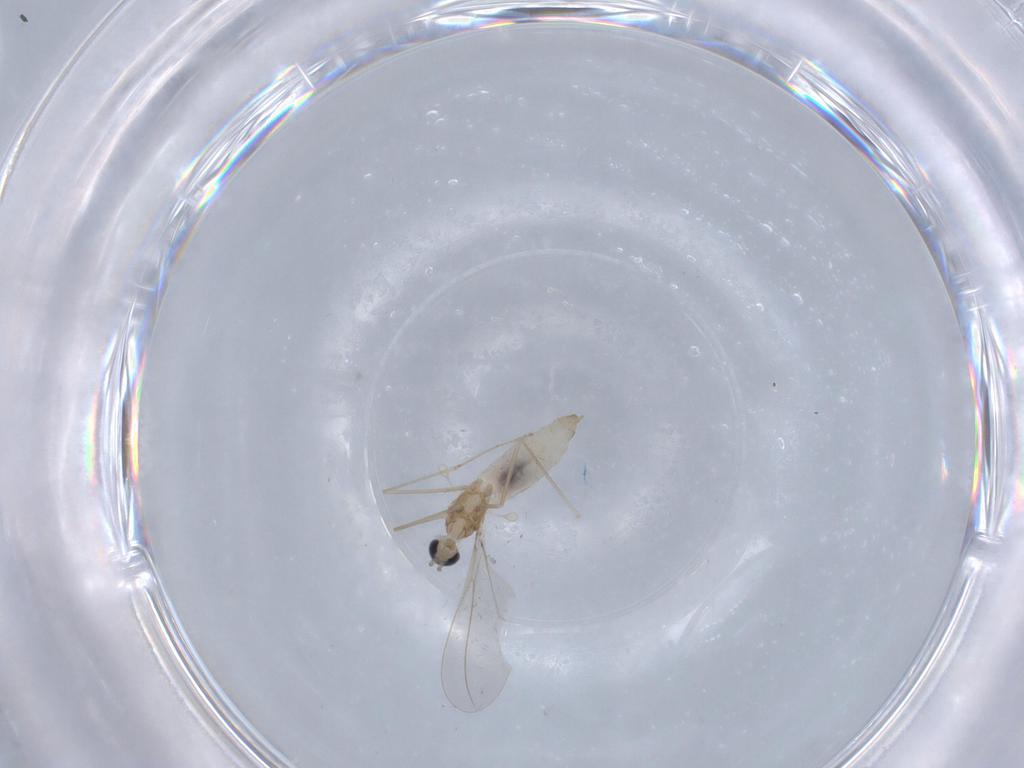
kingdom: Animalia
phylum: Arthropoda
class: Insecta
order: Diptera
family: Cecidomyiidae
